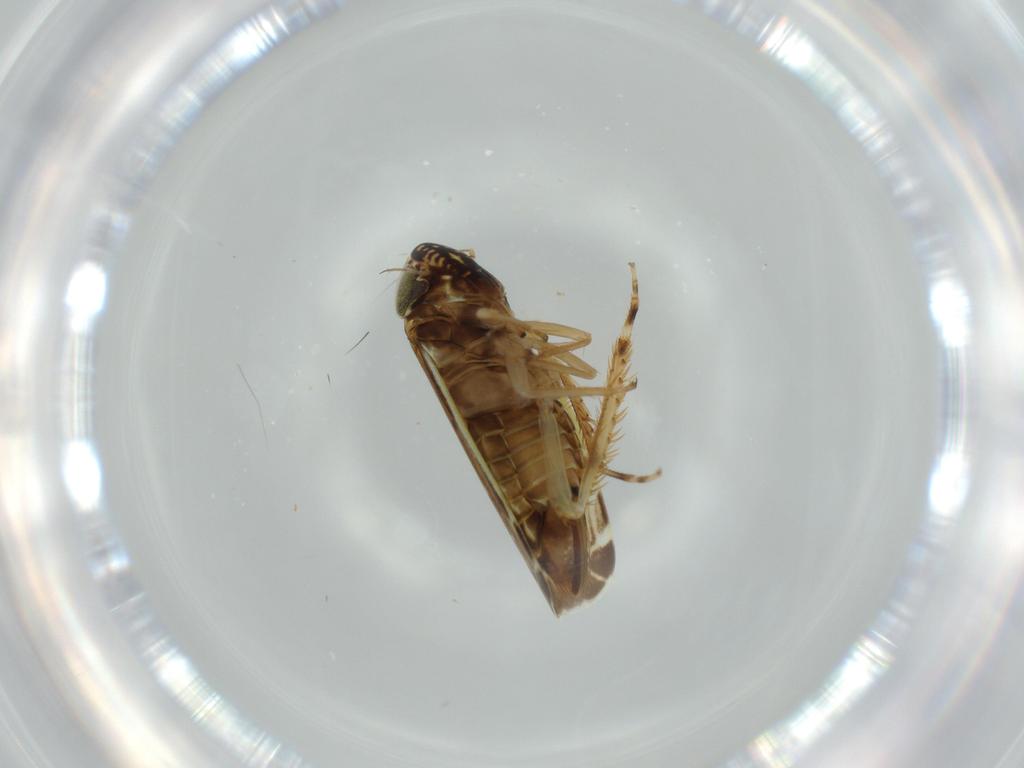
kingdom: Animalia
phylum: Arthropoda
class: Insecta
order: Hemiptera
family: Cicadellidae
